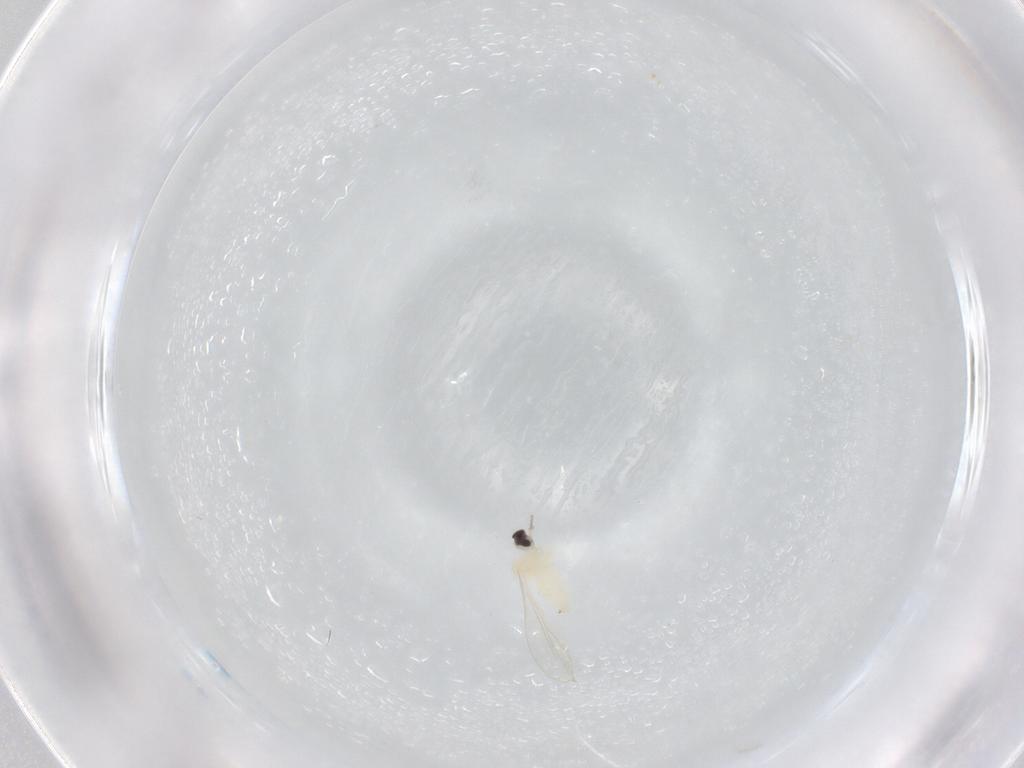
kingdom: Animalia
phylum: Arthropoda
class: Insecta
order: Diptera
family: Psychodidae
